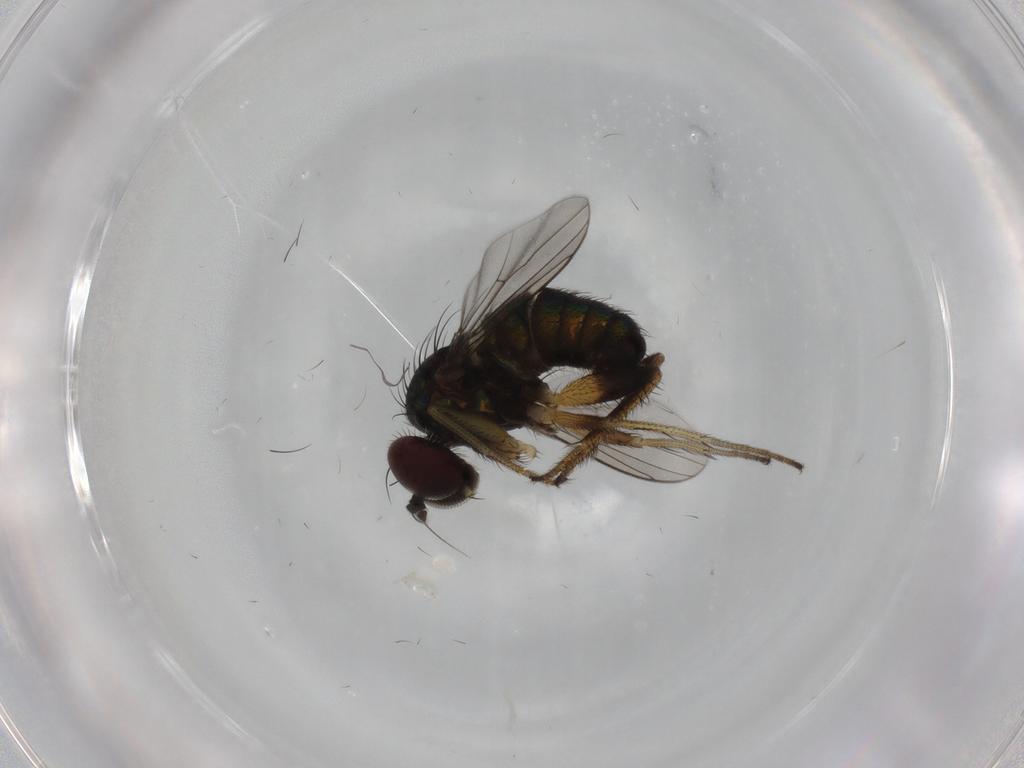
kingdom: Animalia
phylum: Arthropoda
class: Insecta
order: Diptera
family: Dolichopodidae
